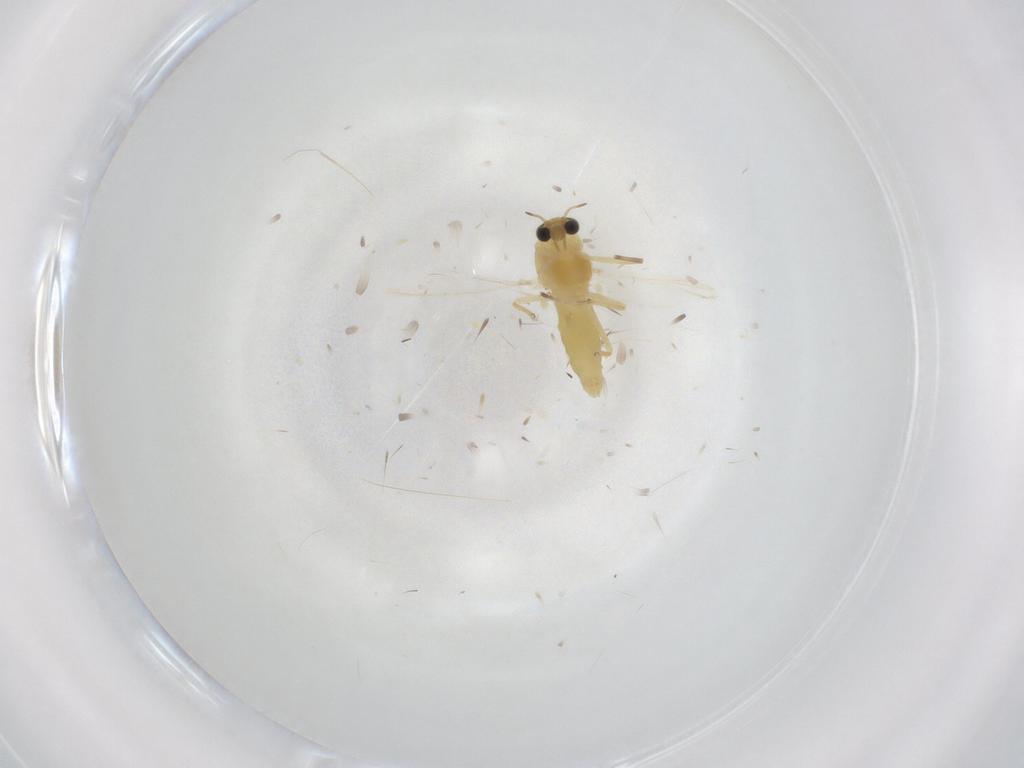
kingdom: Animalia
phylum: Arthropoda
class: Insecta
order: Diptera
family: Chironomidae
